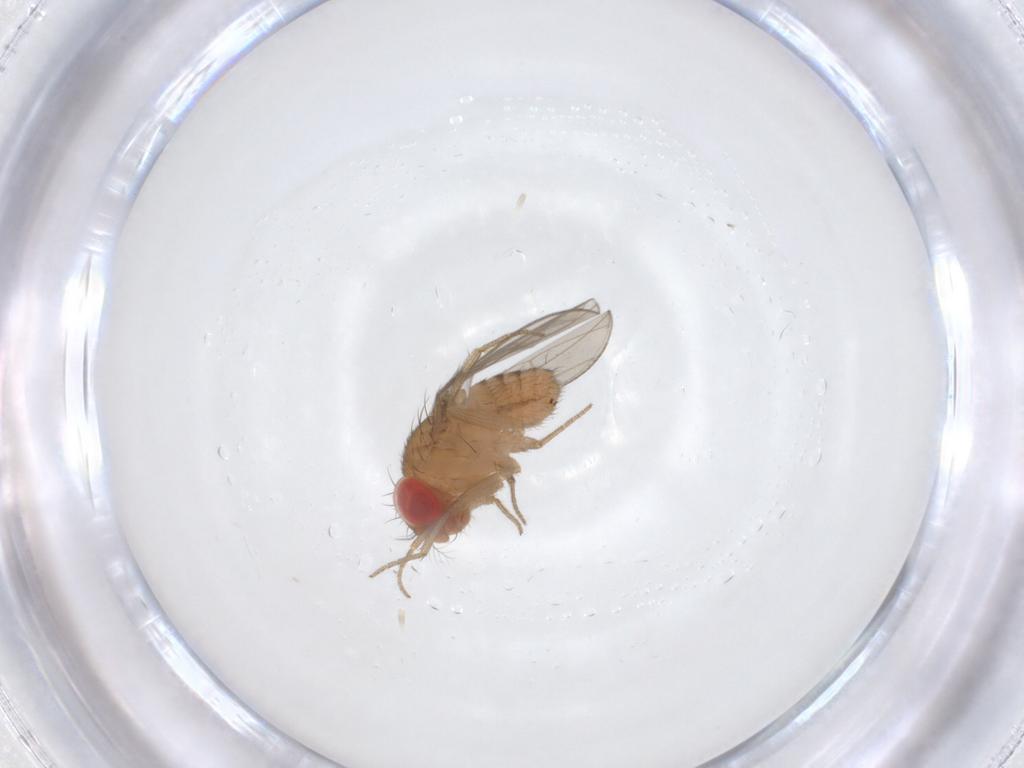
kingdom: Animalia
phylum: Arthropoda
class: Insecta
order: Diptera
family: Drosophilidae
